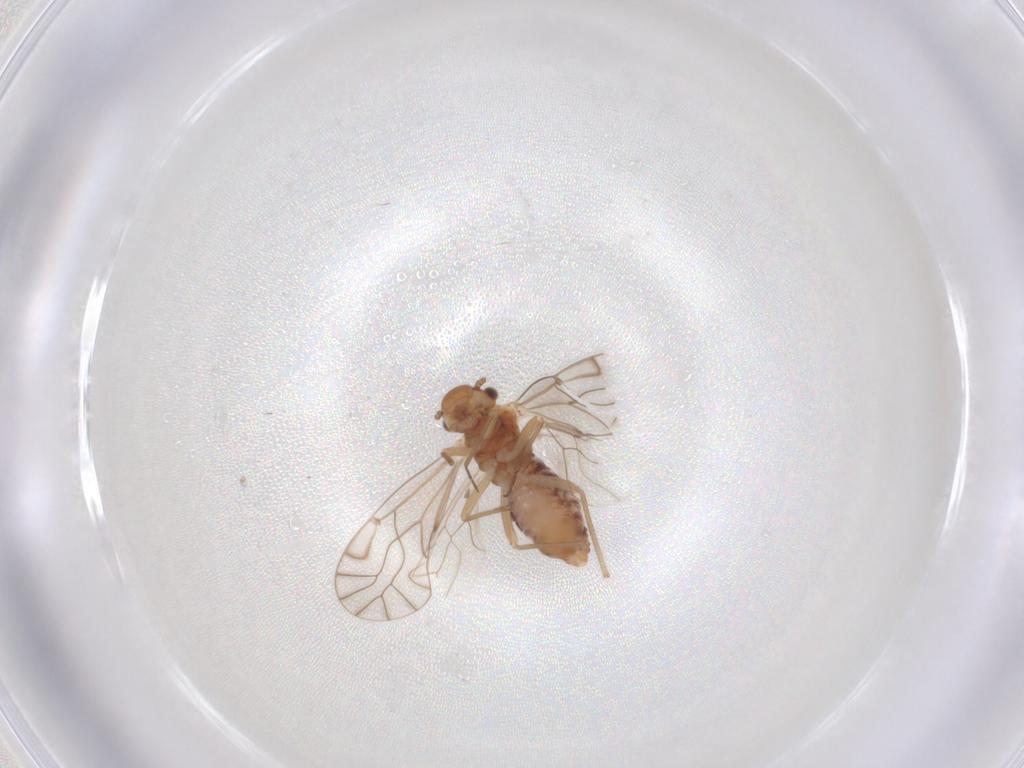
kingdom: Animalia
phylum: Arthropoda
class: Insecta
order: Psocodea
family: Lachesillidae
